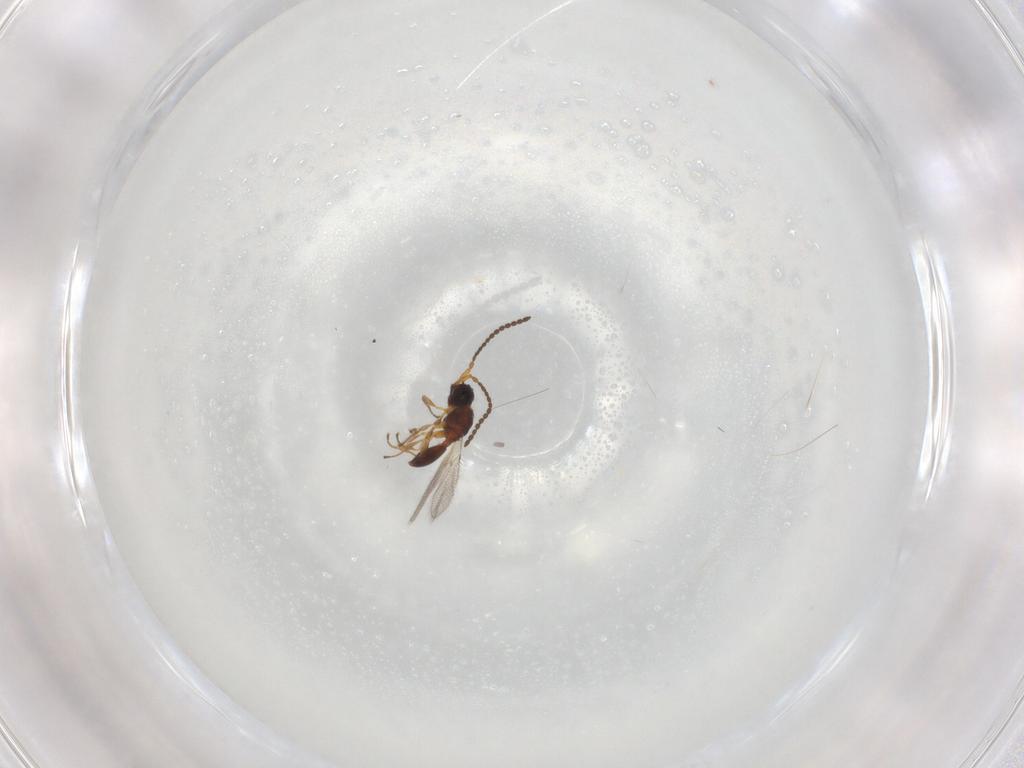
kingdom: Animalia
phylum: Arthropoda
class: Insecta
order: Hymenoptera
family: Diapriidae
